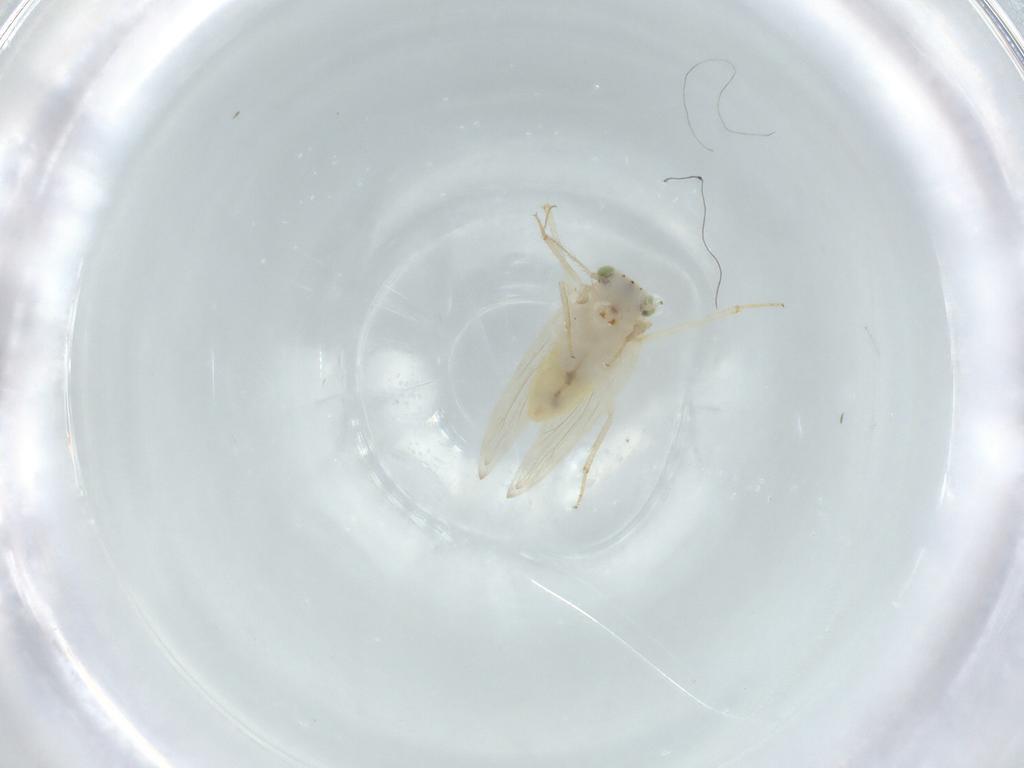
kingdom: Animalia
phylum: Arthropoda
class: Insecta
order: Psocodea
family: Lepidopsocidae
